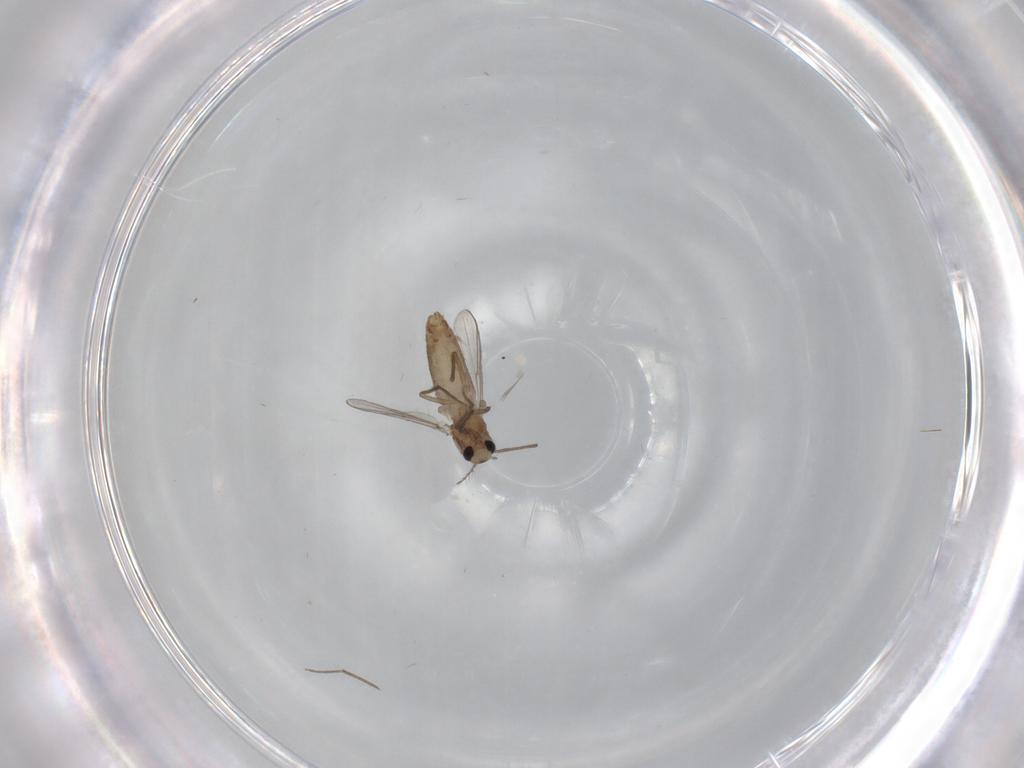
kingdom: Animalia
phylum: Arthropoda
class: Insecta
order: Diptera
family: Chironomidae
